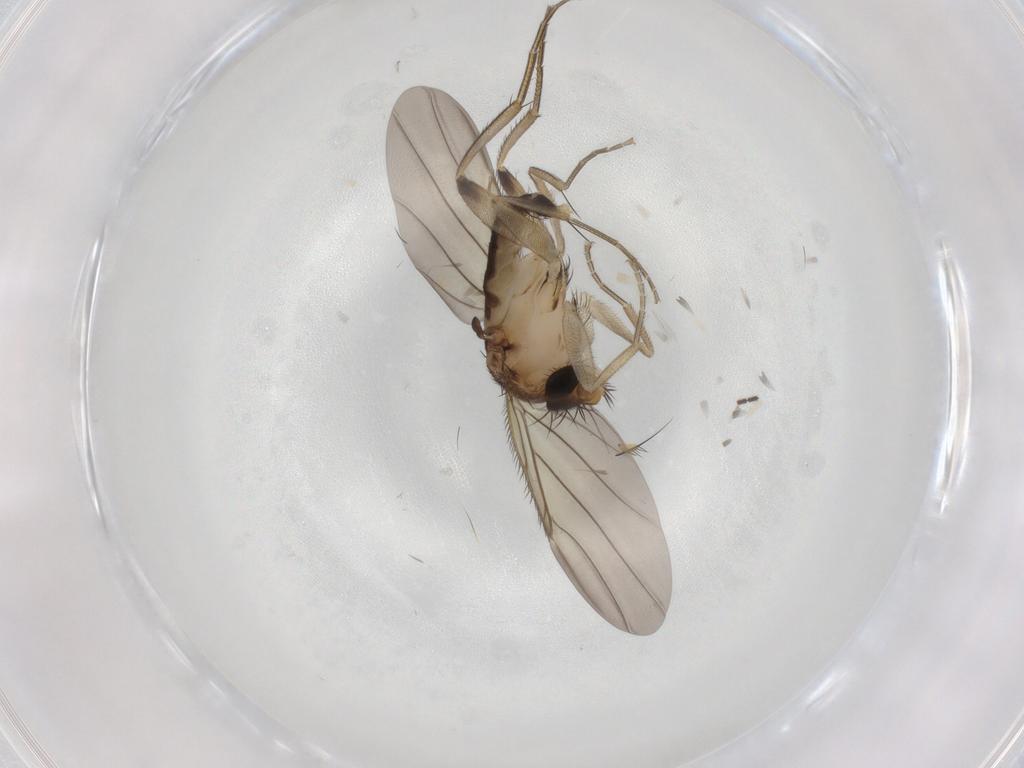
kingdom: Animalia
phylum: Arthropoda
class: Insecta
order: Diptera
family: Phoridae
